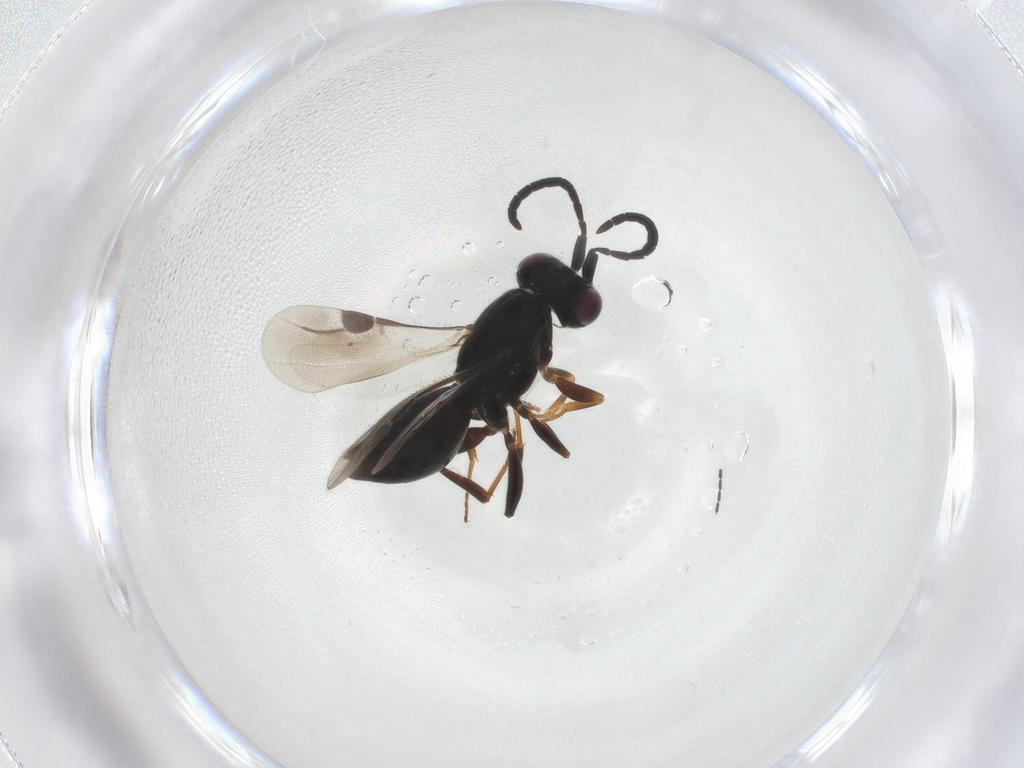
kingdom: Animalia
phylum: Arthropoda
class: Insecta
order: Hymenoptera
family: Megaspilidae
